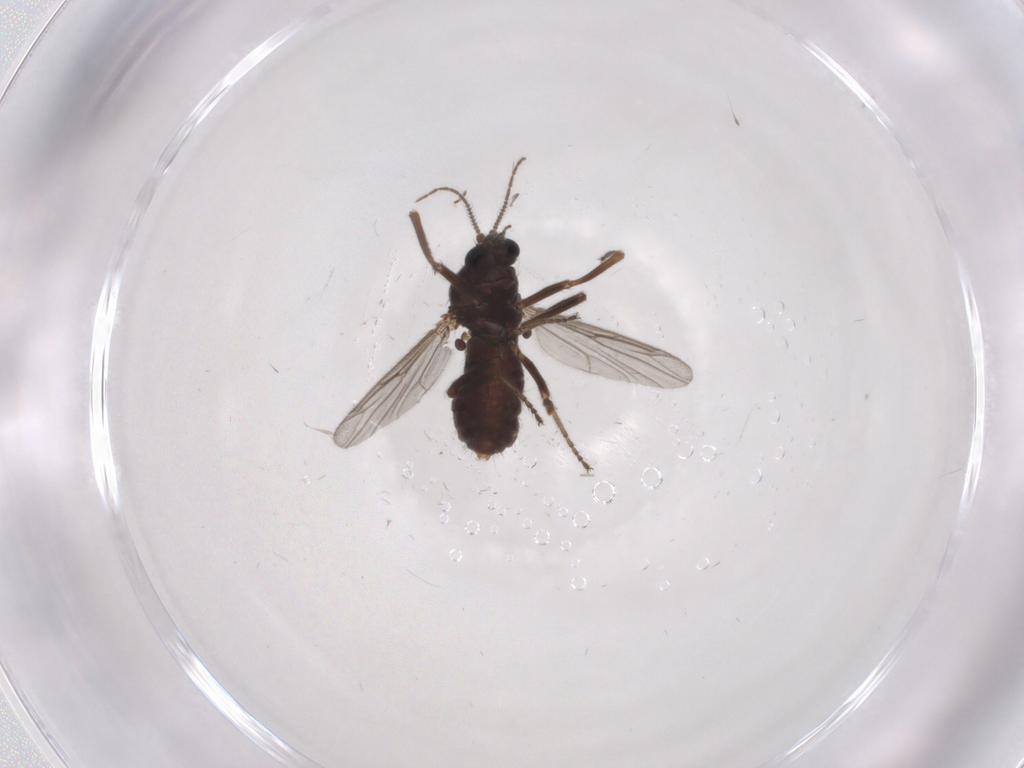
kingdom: Animalia
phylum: Arthropoda
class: Insecta
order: Diptera
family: Ceratopogonidae
